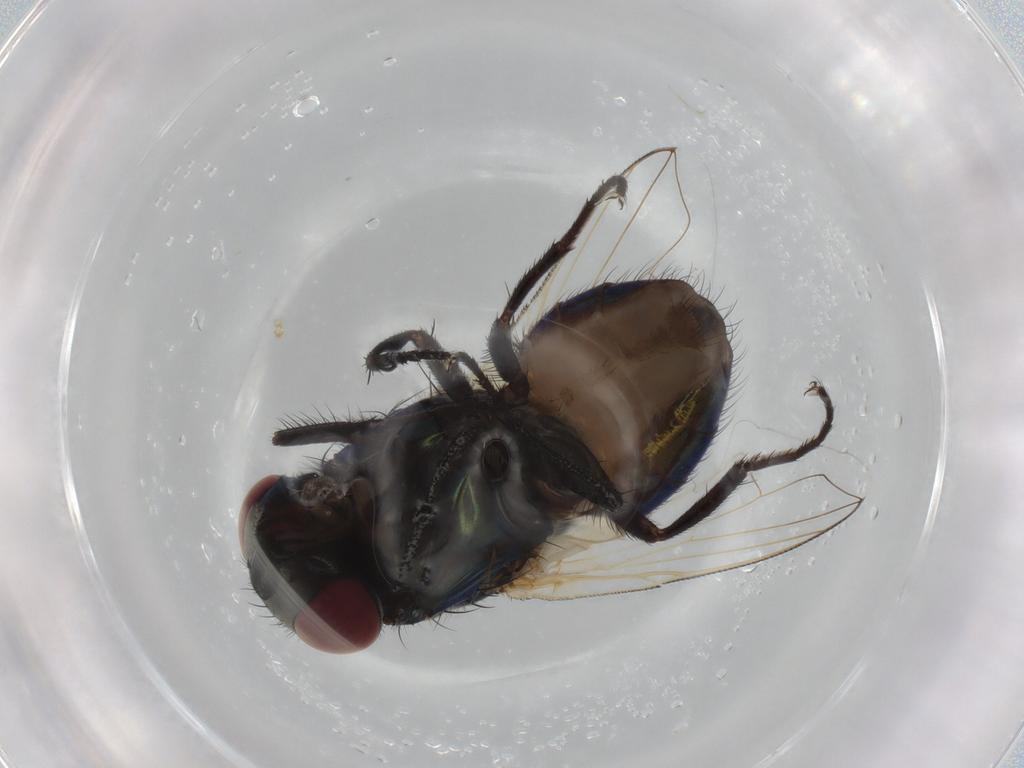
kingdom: Animalia
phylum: Arthropoda
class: Insecta
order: Diptera
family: Muscidae
